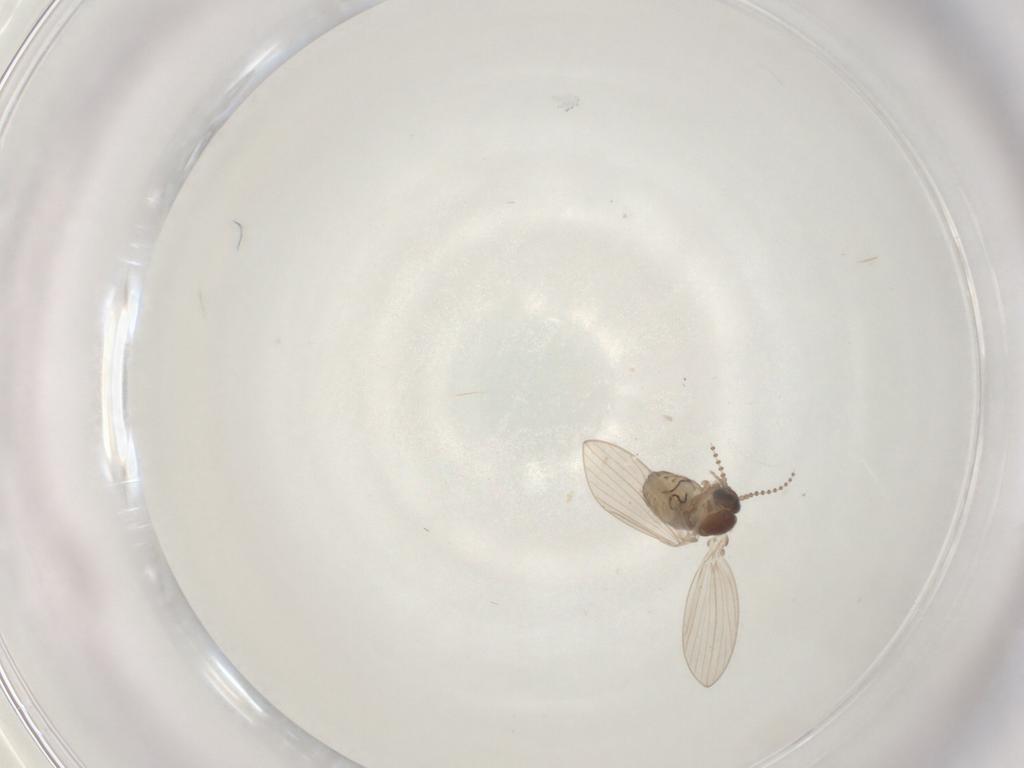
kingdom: Animalia
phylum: Arthropoda
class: Insecta
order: Diptera
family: Psychodidae
